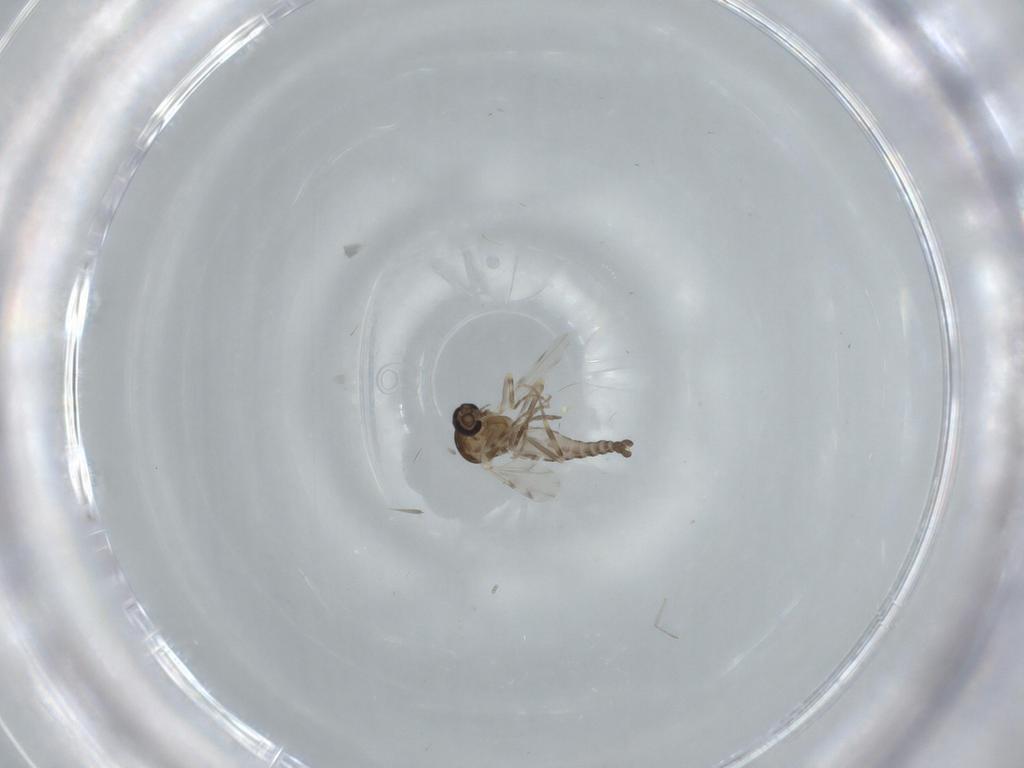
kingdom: Animalia
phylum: Arthropoda
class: Insecta
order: Diptera
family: Ceratopogonidae
